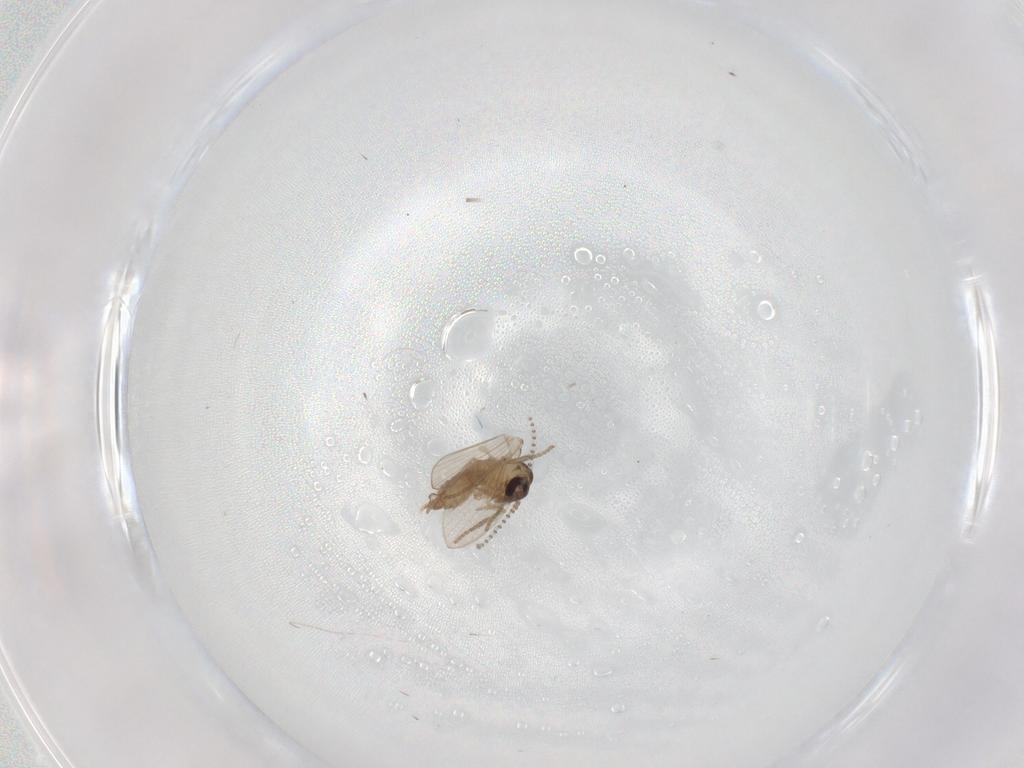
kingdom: Animalia
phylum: Arthropoda
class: Insecta
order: Diptera
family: Psychodidae
